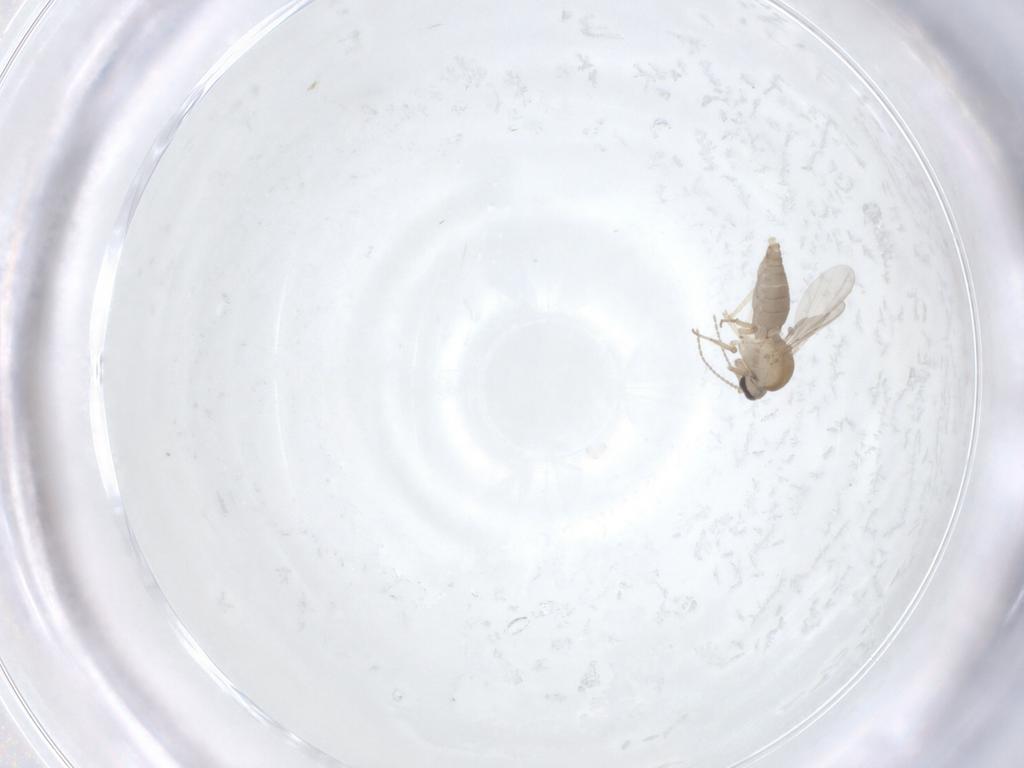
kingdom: Animalia
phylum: Arthropoda
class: Insecta
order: Diptera
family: Ceratopogonidae
